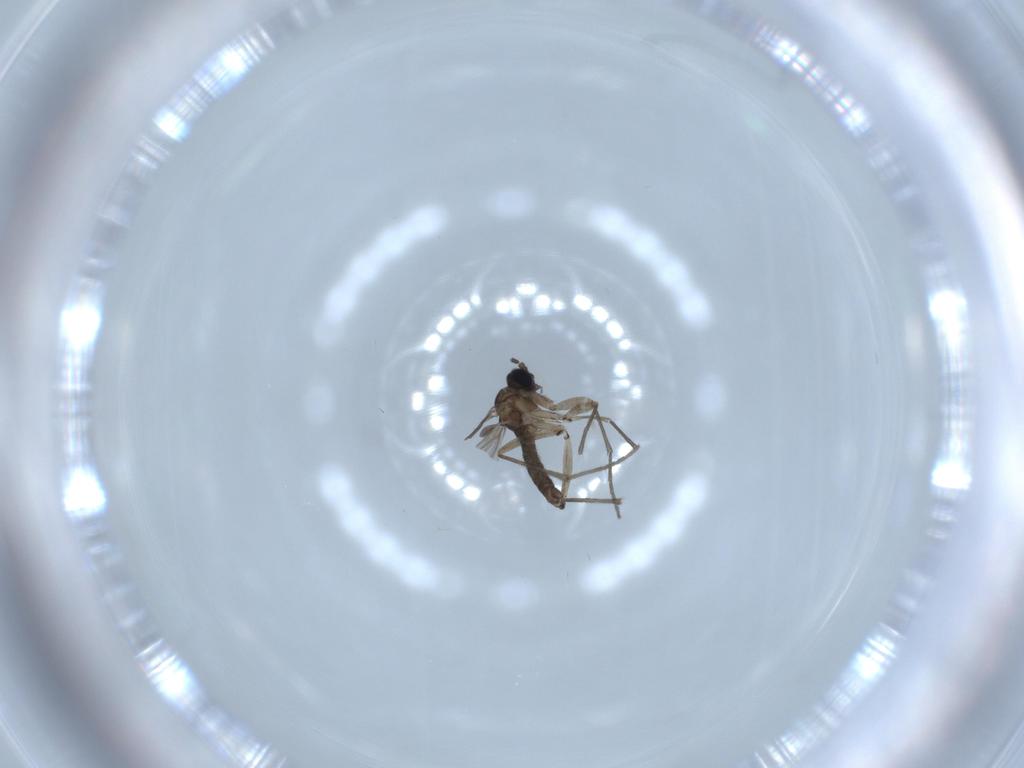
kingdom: Animalia
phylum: Arthropoda
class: Insecta
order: Diptera
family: Sciaridae
